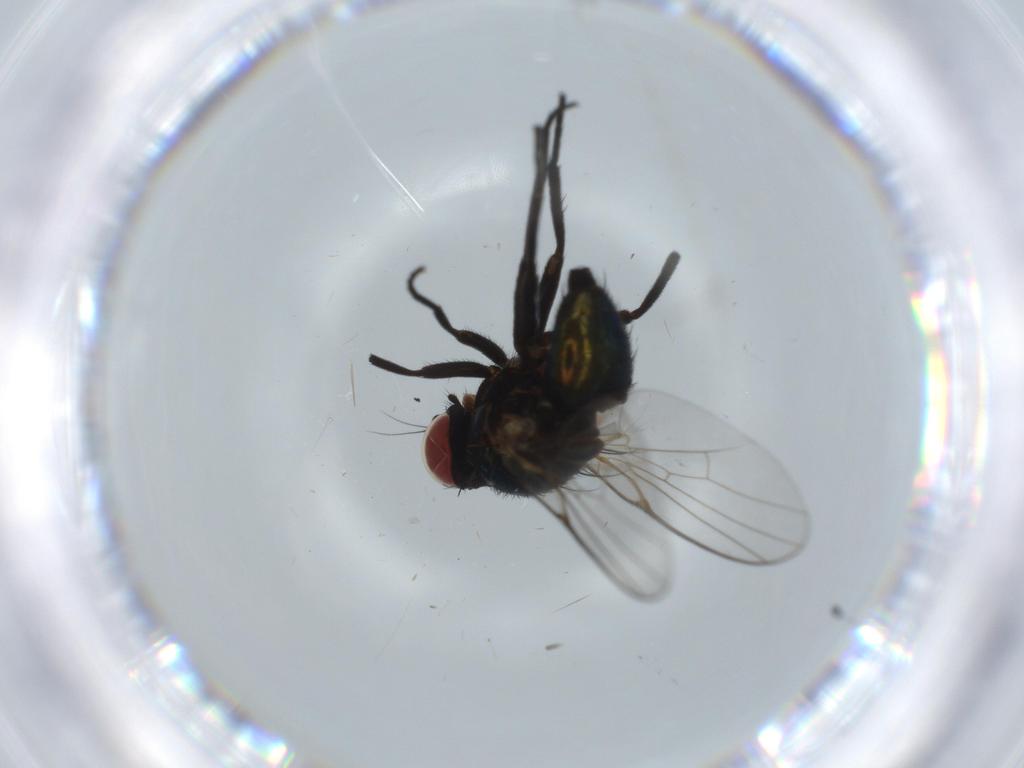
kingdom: Animalia
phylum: Arthropoda
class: Insecta
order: Diptera
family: Agromyzidae
